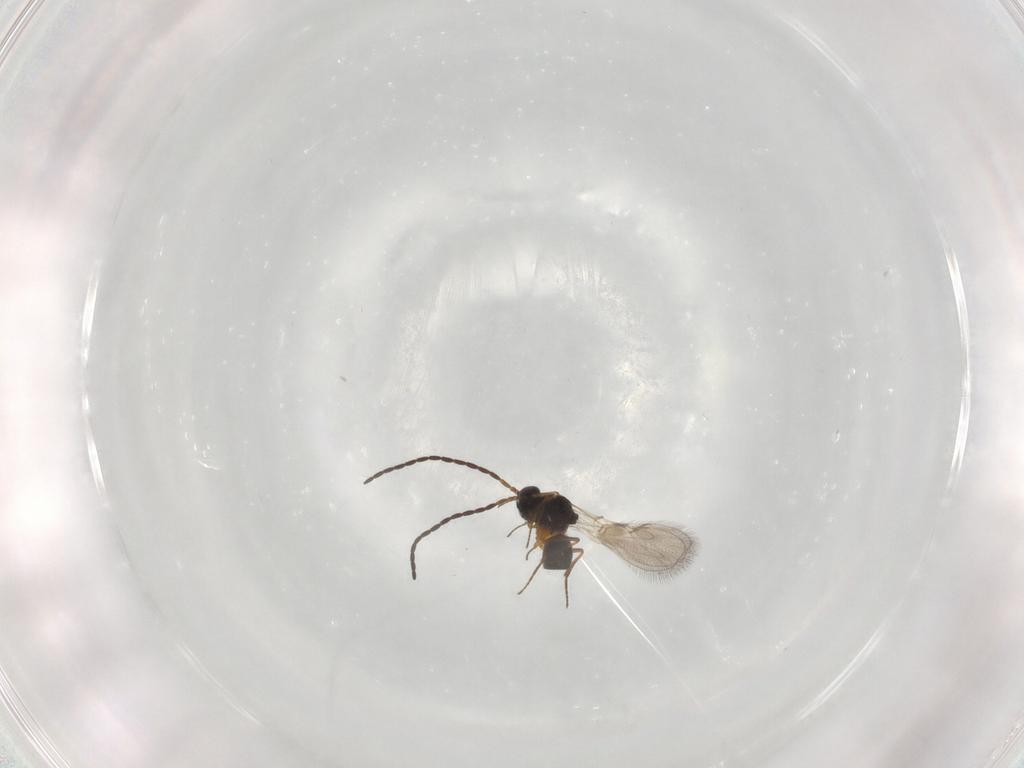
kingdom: Animalia
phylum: Arthropoda
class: Insecta
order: Hymenoptera
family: Figitidae
